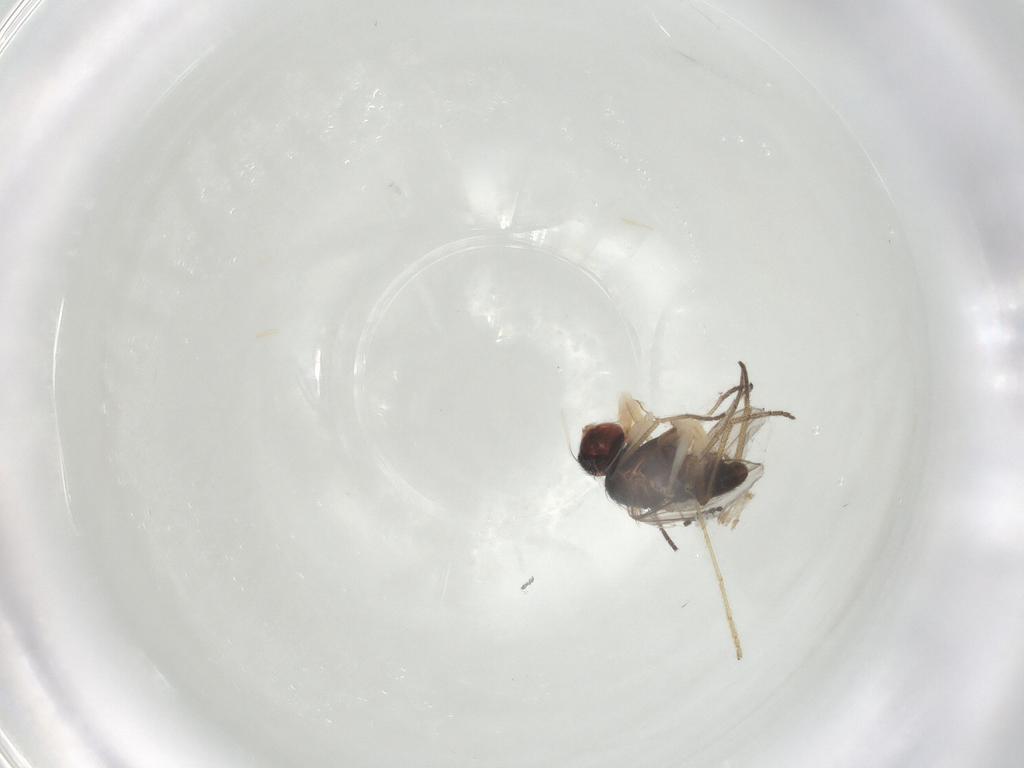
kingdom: Animalia
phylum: Arthropoda
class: Insecta
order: Diptera
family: Dolichopodidae
